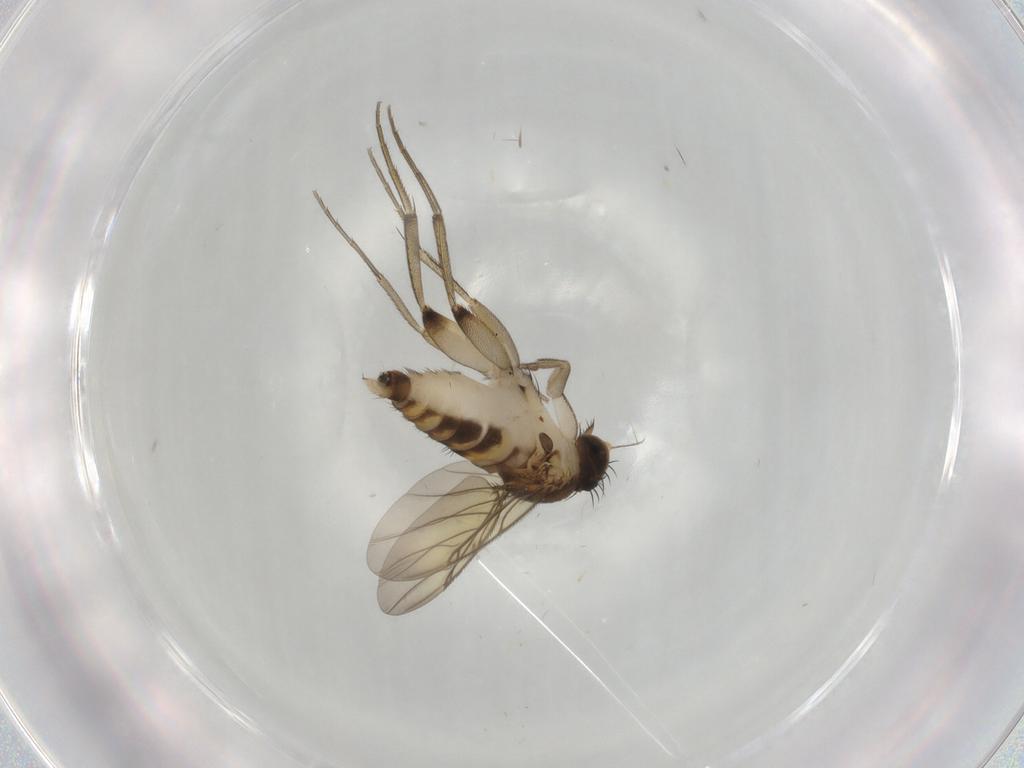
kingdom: Animalia
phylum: Arthropoda
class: Insecta
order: Diptera
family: Phoridae
